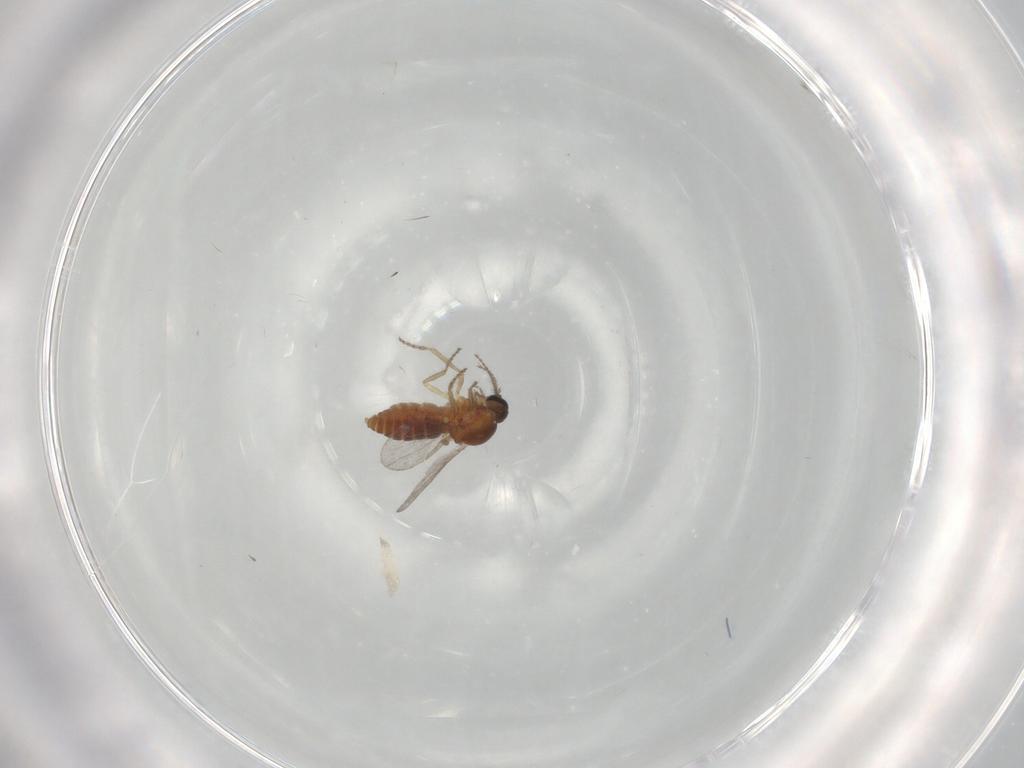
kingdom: Animalia
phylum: Arthropoda
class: Insecta
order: Diptera
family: Ceratopogonidae
